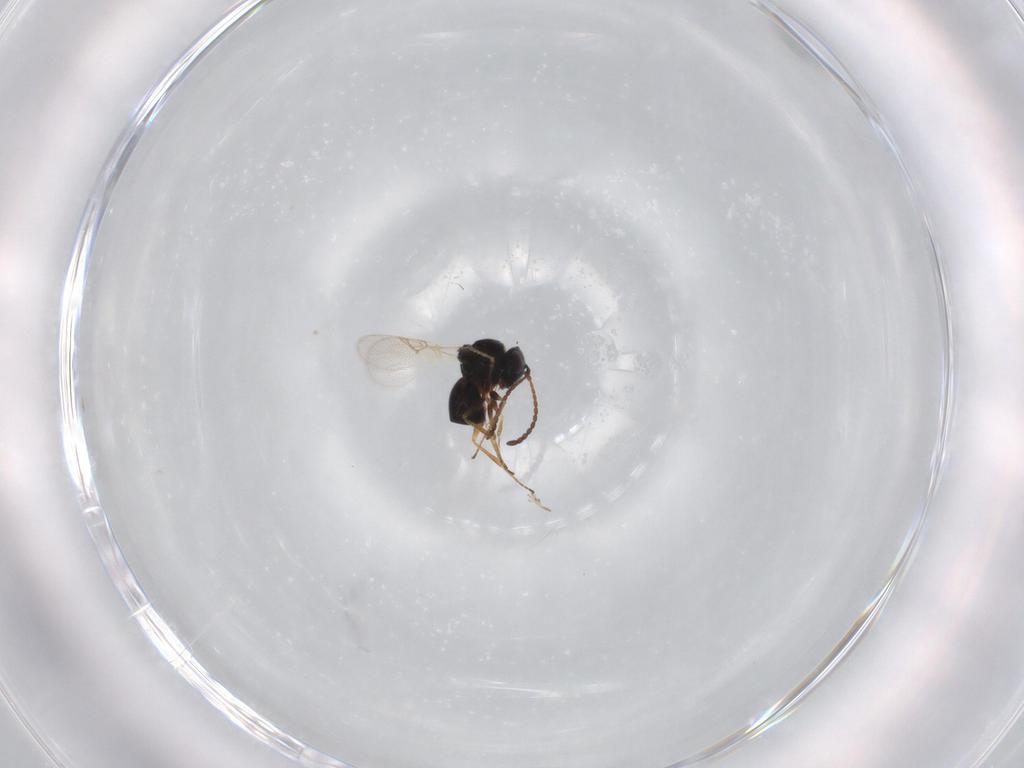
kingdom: Animalia
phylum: Arthropoda
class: Insecta
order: Hymenoptera
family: Figitidae
